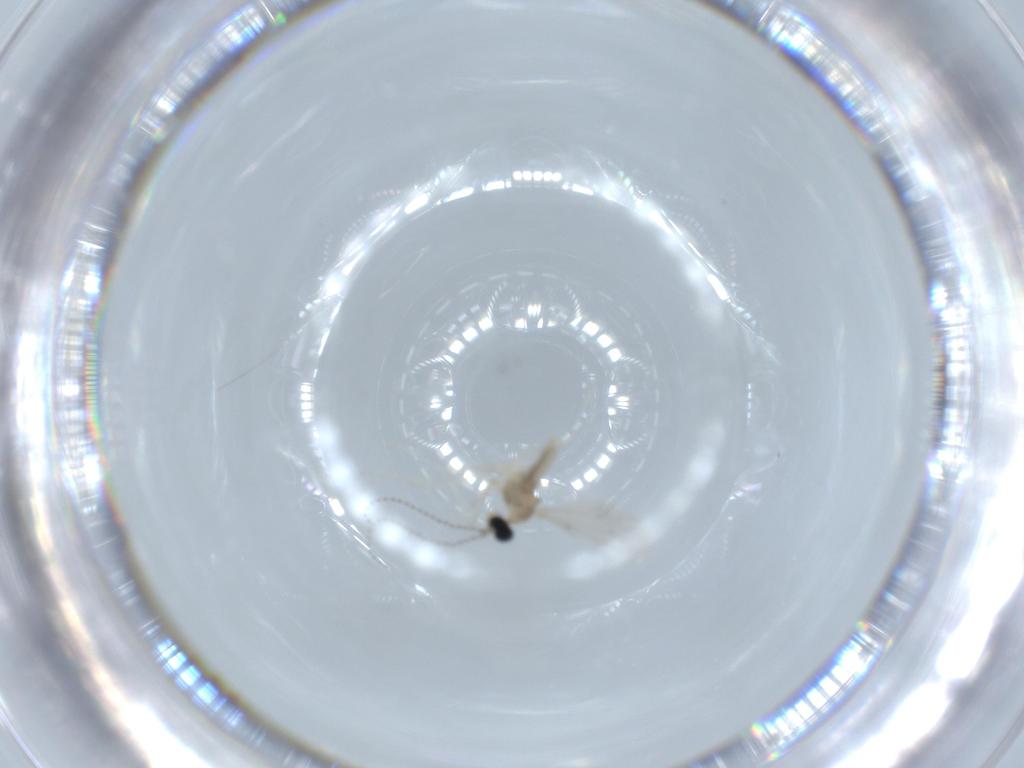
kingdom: Animalia
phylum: Arthropoda
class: Insecta
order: Diptera
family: Cecidomyiidae
